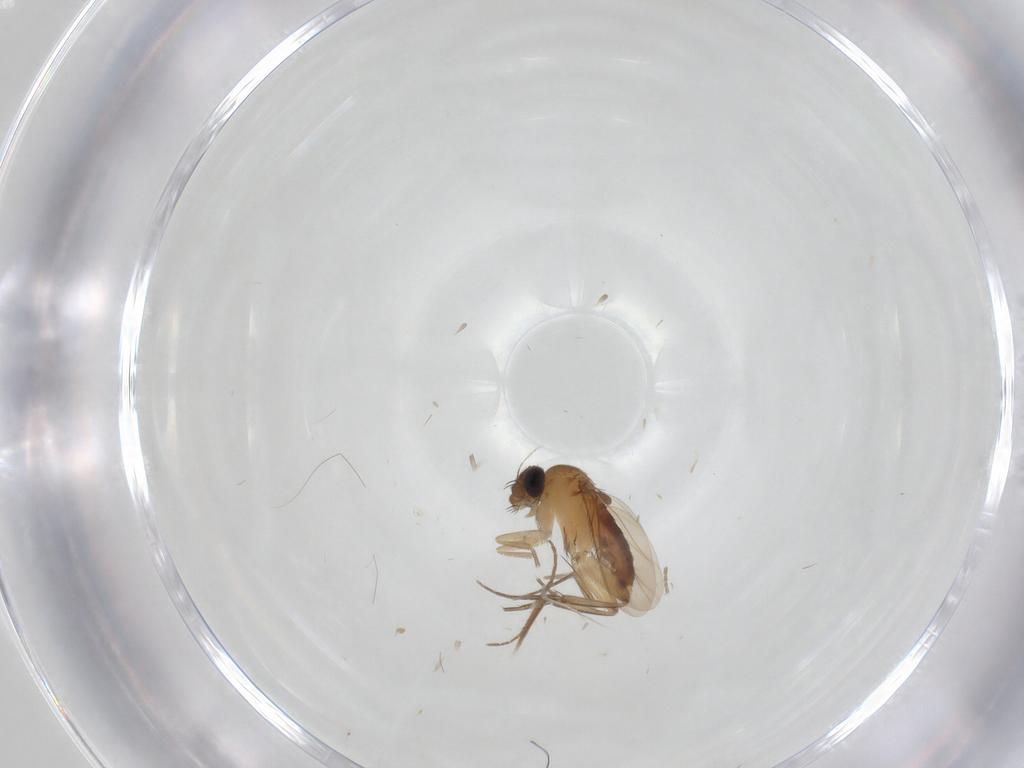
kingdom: Animalia
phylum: Arthropoda
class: Insecta
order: Diptera
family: Phoridae
